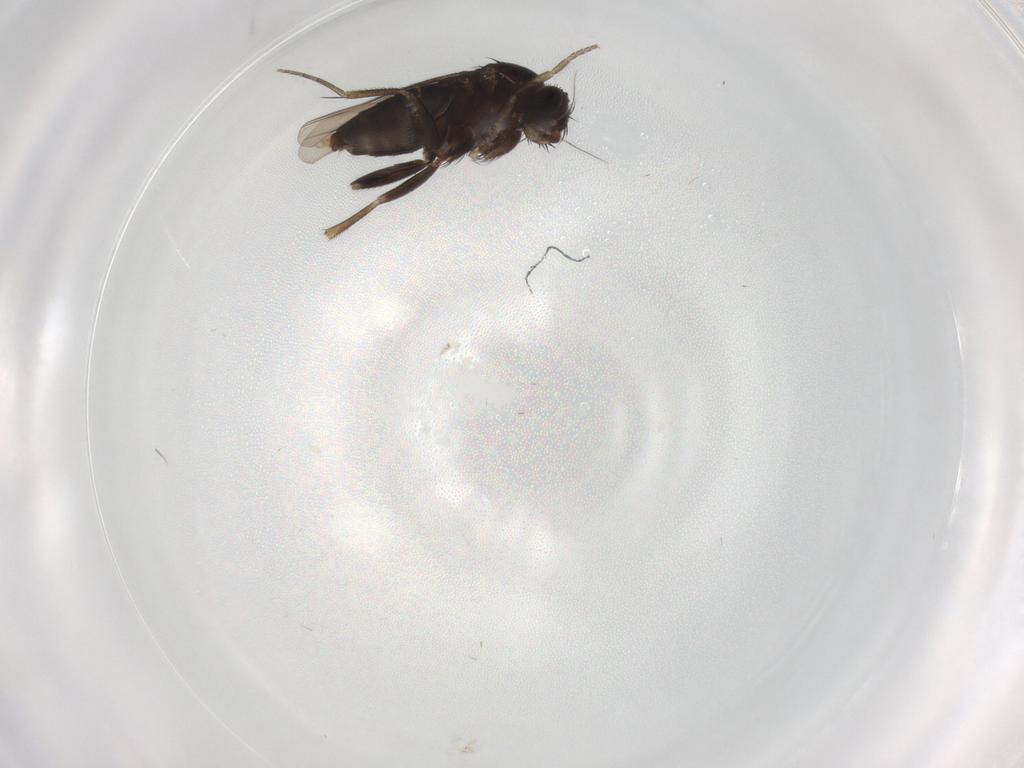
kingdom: Animalia
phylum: Arthropoda
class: Insecta
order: Diptera
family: Phoridae
